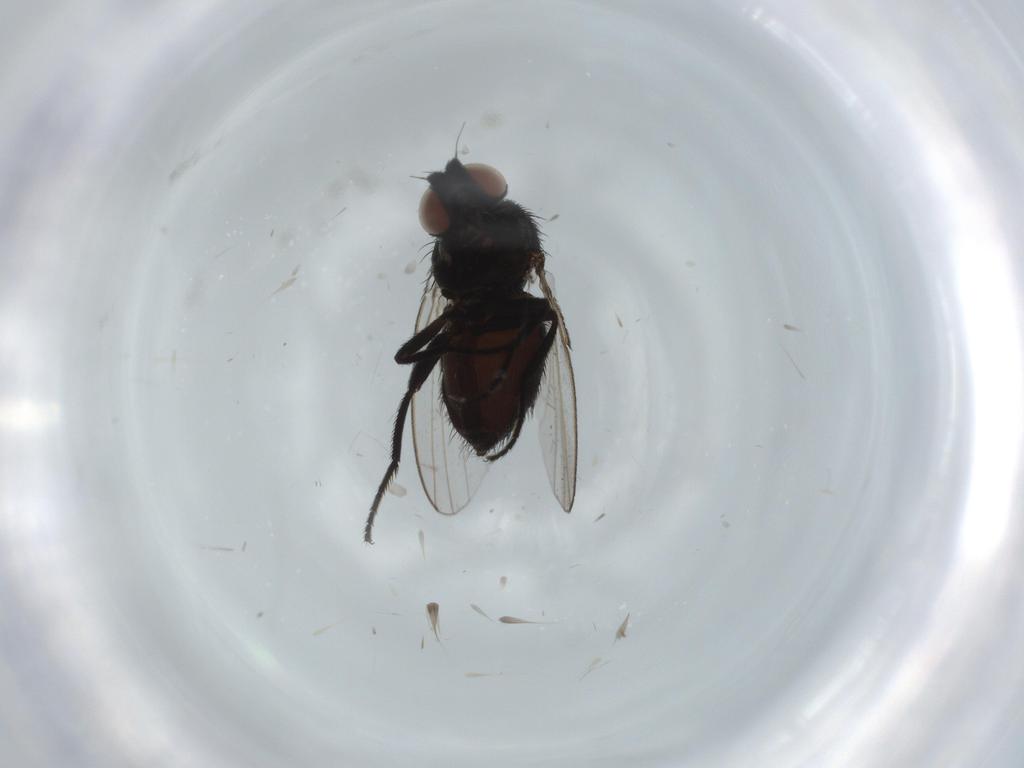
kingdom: Animalia
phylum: Arthropoda
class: Insecta
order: Diptera
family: Milichiidae
